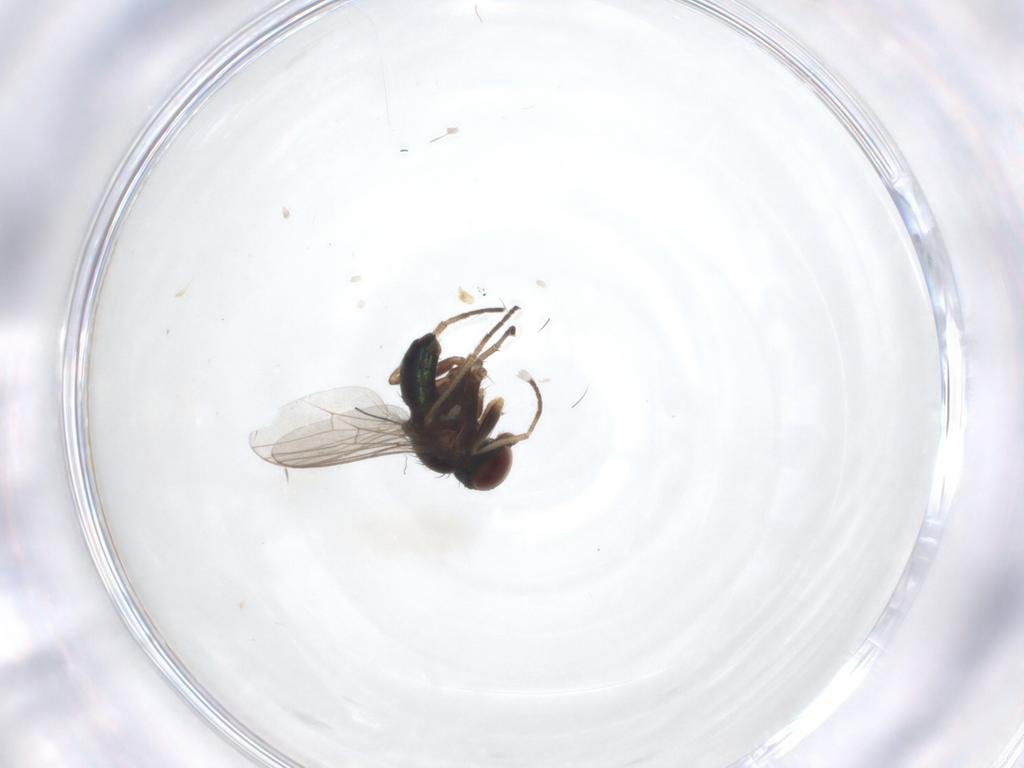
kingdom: Animalia
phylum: Arthropoda
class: Insecta
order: Diptera
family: Dolichopodidae
